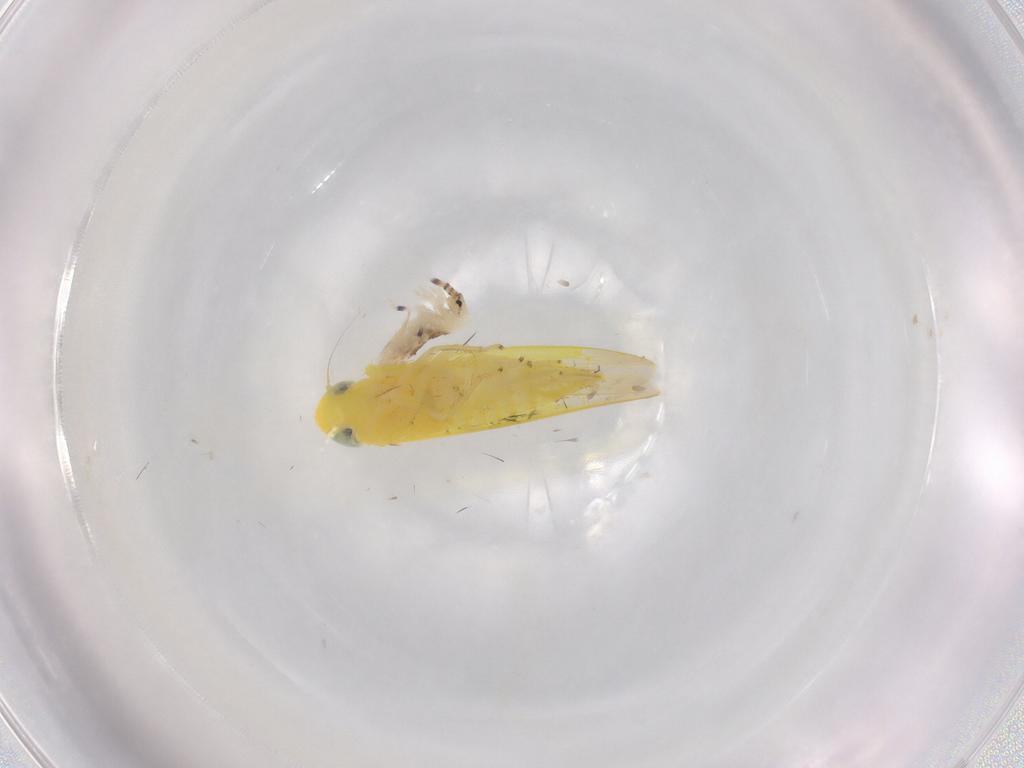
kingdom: Animalia
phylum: Arthropoda
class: Insecta
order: Hemiptera
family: Cicadellidae
